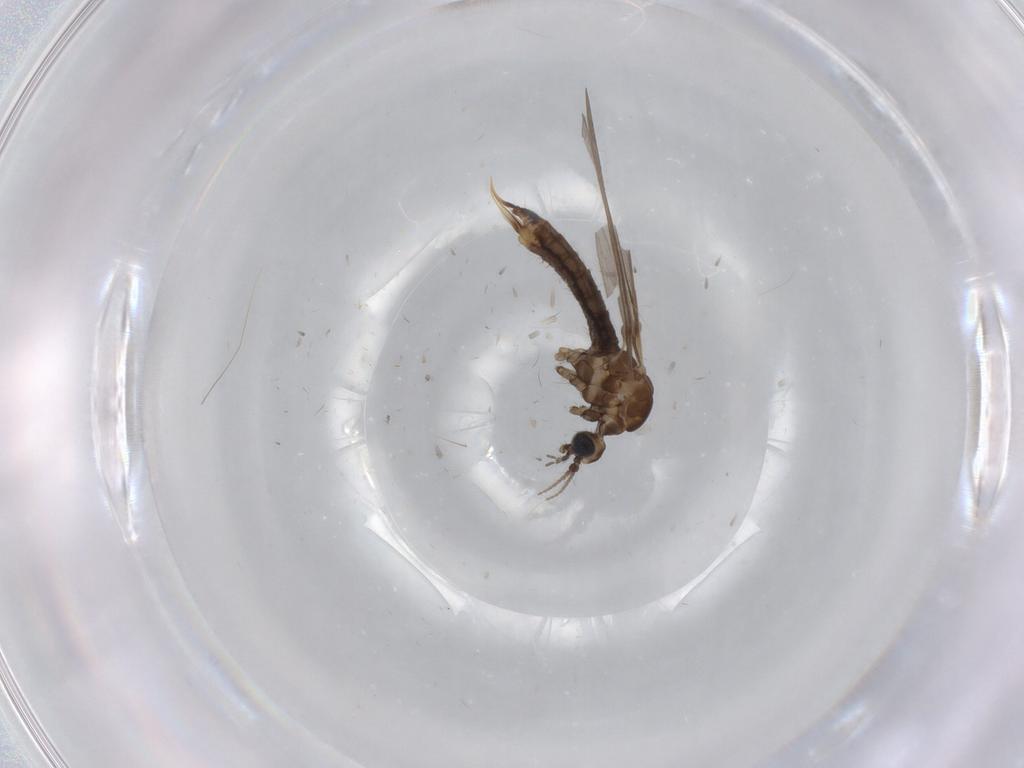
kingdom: Animalia
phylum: Arthropoda
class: Insecta
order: Diptera
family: Limoniidae
